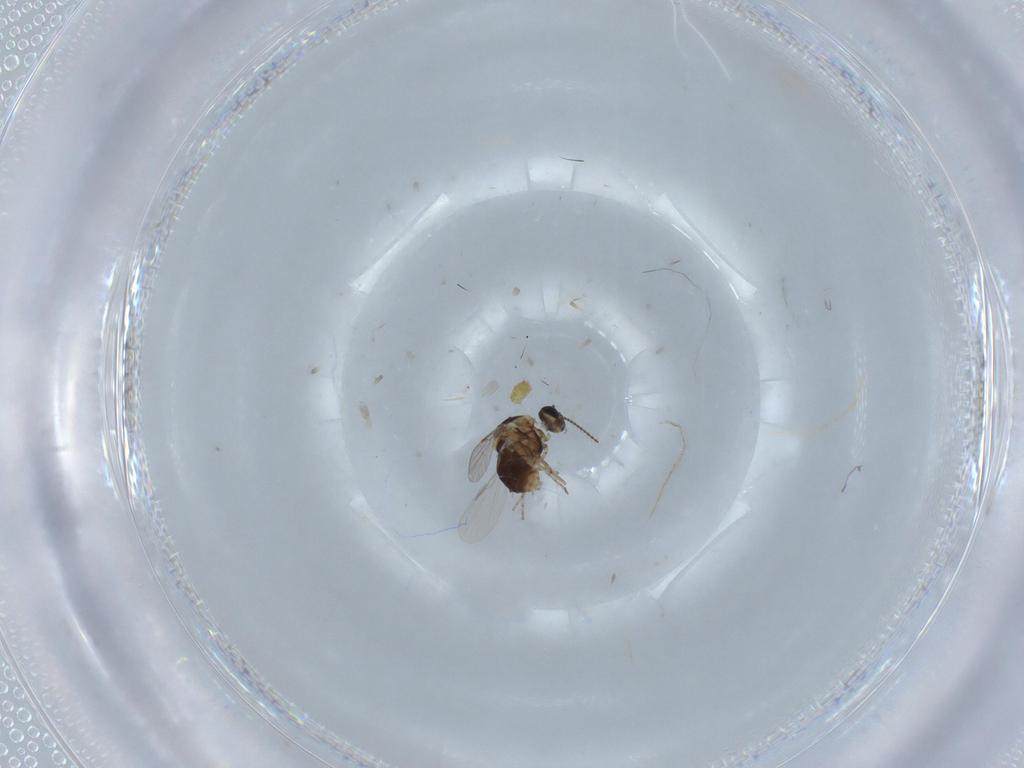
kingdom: Animalia
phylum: Arthropoda
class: Insecta
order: Diptera
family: Ceratopogonidae
